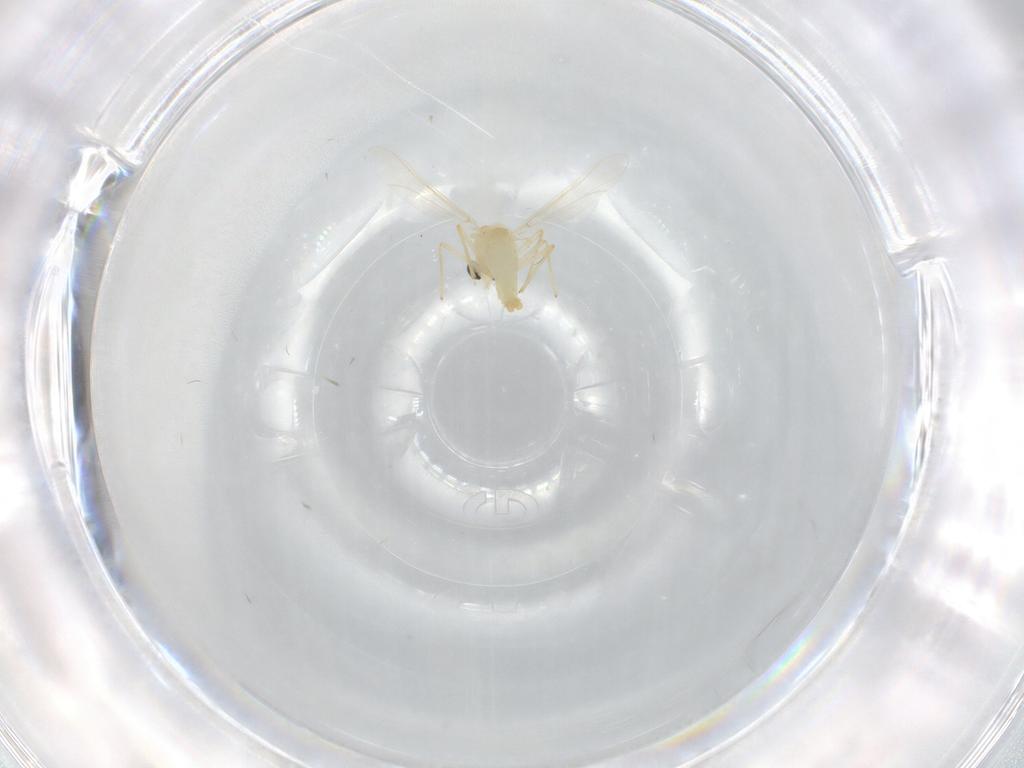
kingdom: Animalia
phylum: Arthropoda
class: Insecta
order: Diptera
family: Chironomidae
